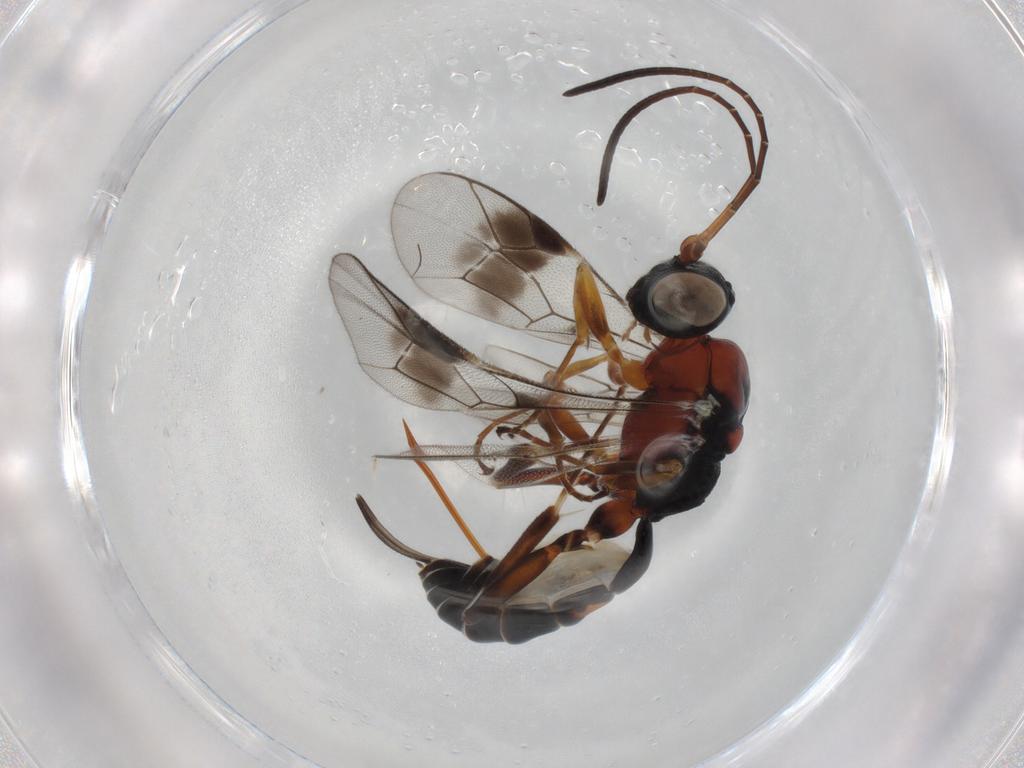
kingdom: Animalia
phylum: Arthropoda
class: Insecta
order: Hymenoptera
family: Ichneumonidae
